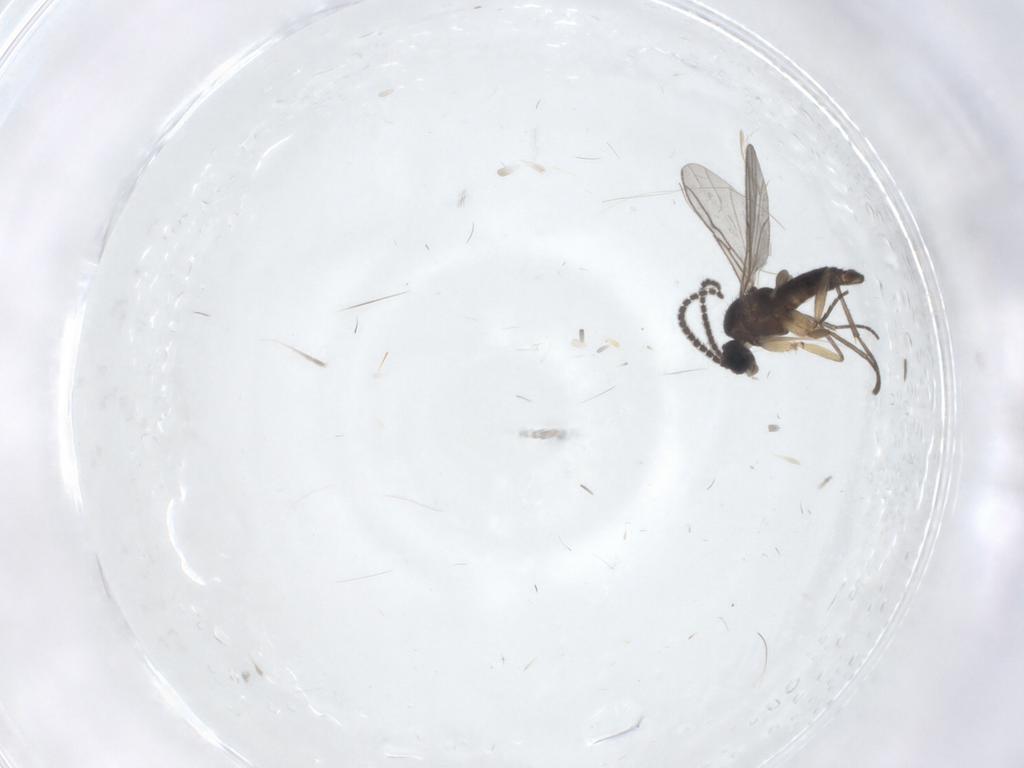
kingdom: Animalia
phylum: Arthropoda
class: Insecta
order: Diptera
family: Sciaridae
